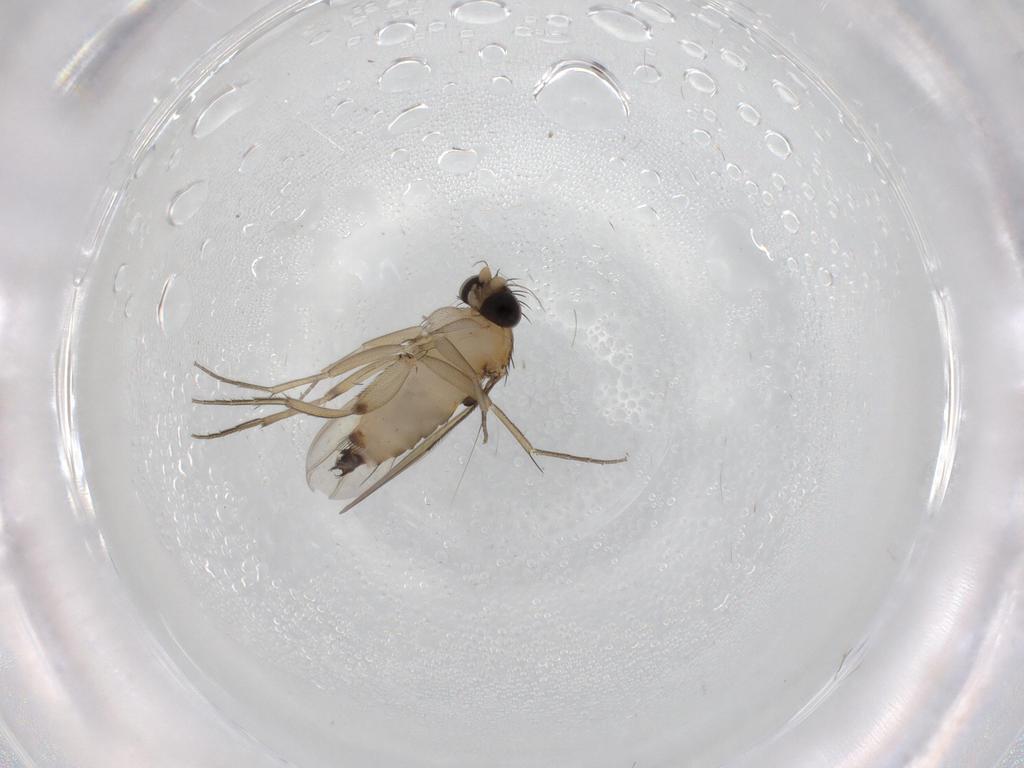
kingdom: Animalia
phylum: Arthropoda
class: Insecta
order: Diptera
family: Phoridae
